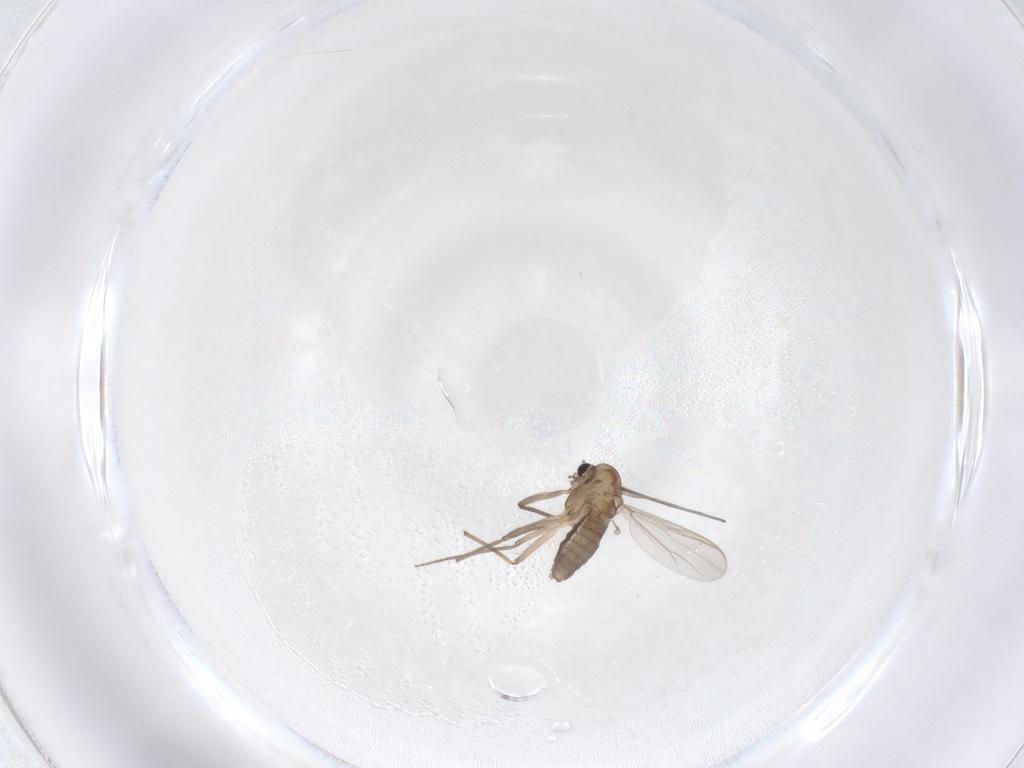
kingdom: Animalia
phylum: Arthropoda
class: Insecta
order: Diptera
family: Chironomidae
